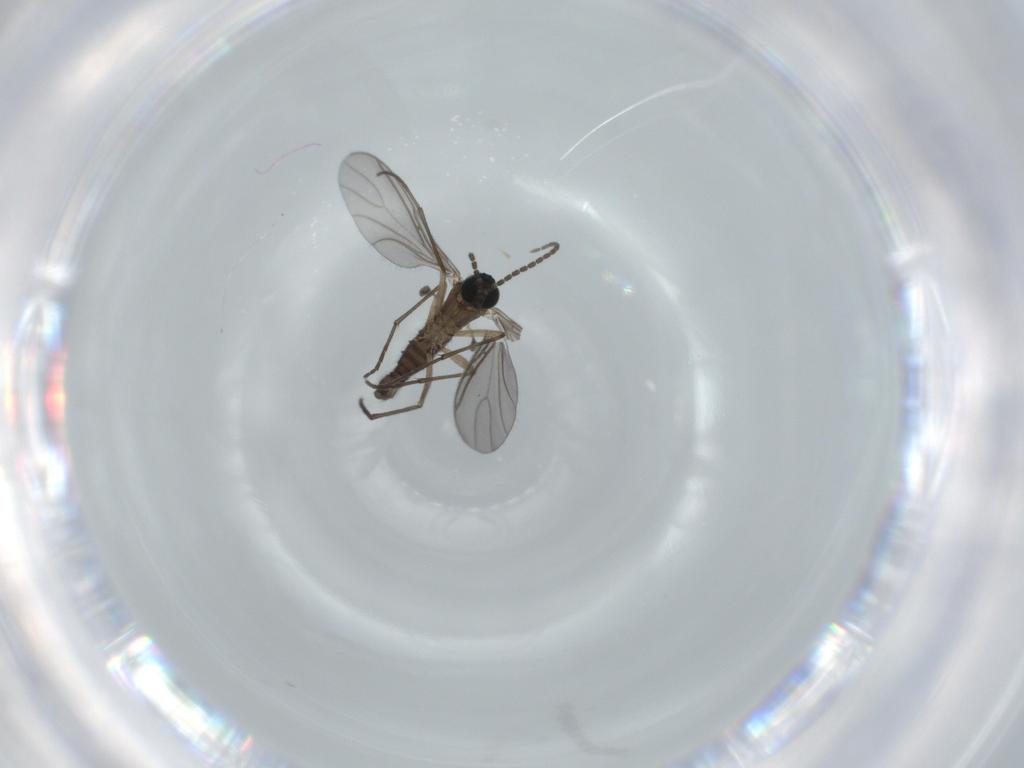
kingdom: Animalia
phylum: Arthropoda
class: Insecta
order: Diptera
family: Sciaridae
